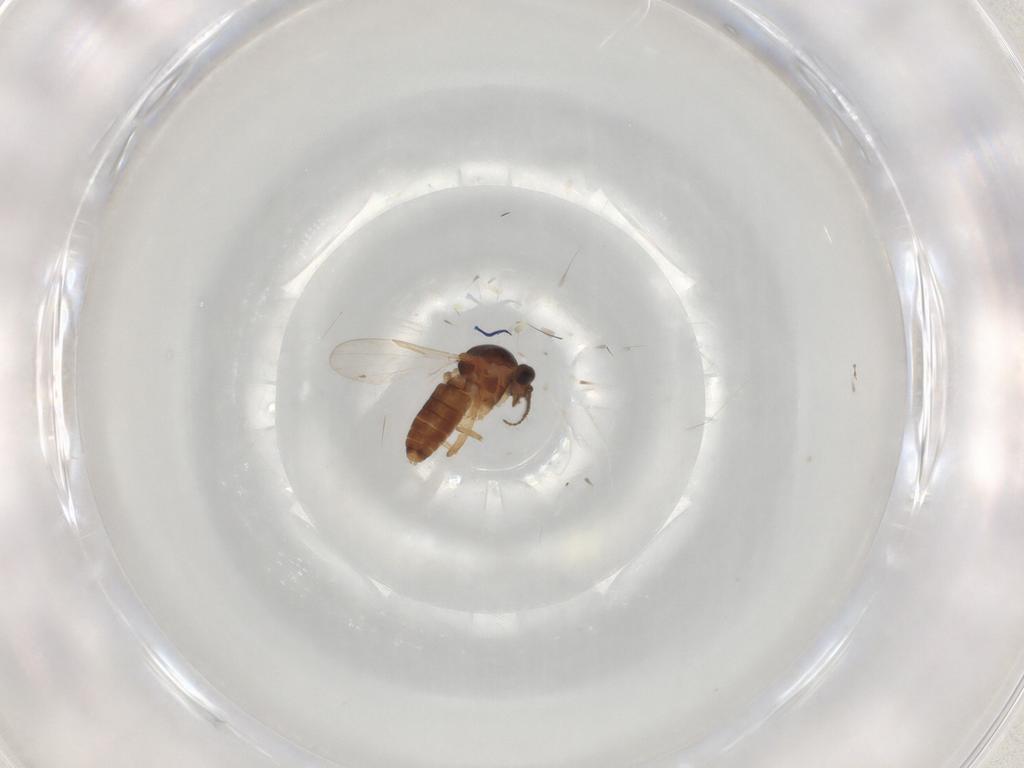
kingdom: Animalia
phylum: Arthropoda
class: Insecta
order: Diptera
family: Ceratopogonidae
